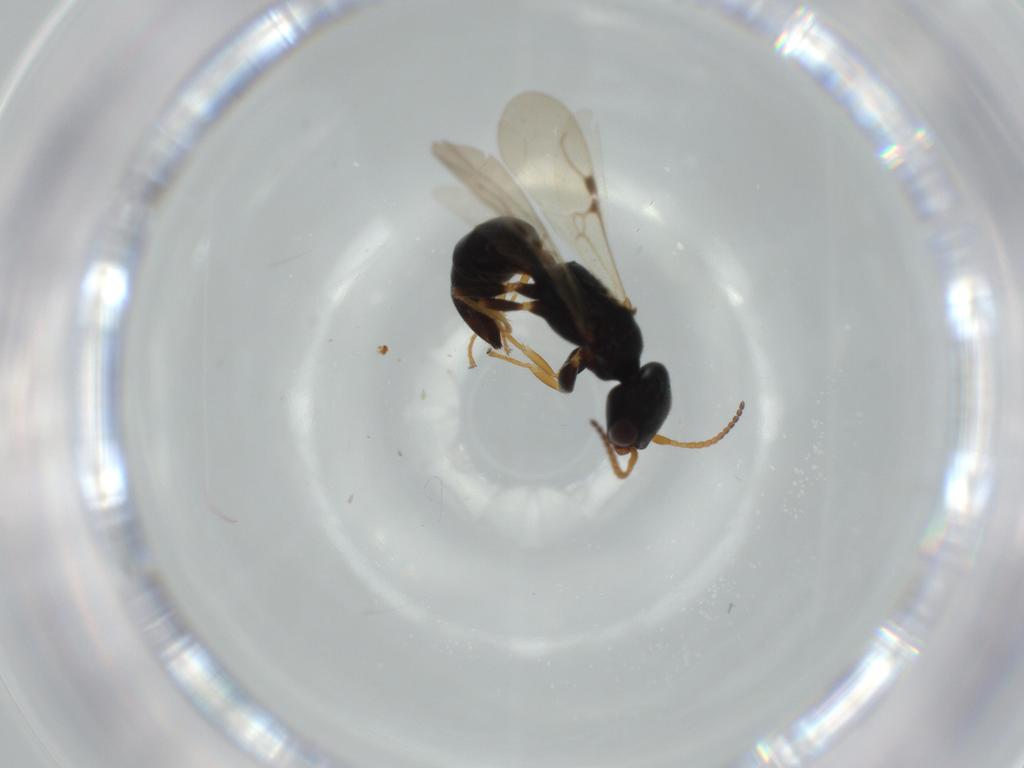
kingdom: Animalia
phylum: Arthropoda
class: Insecta
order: Hymenoptera
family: Bethylidae
